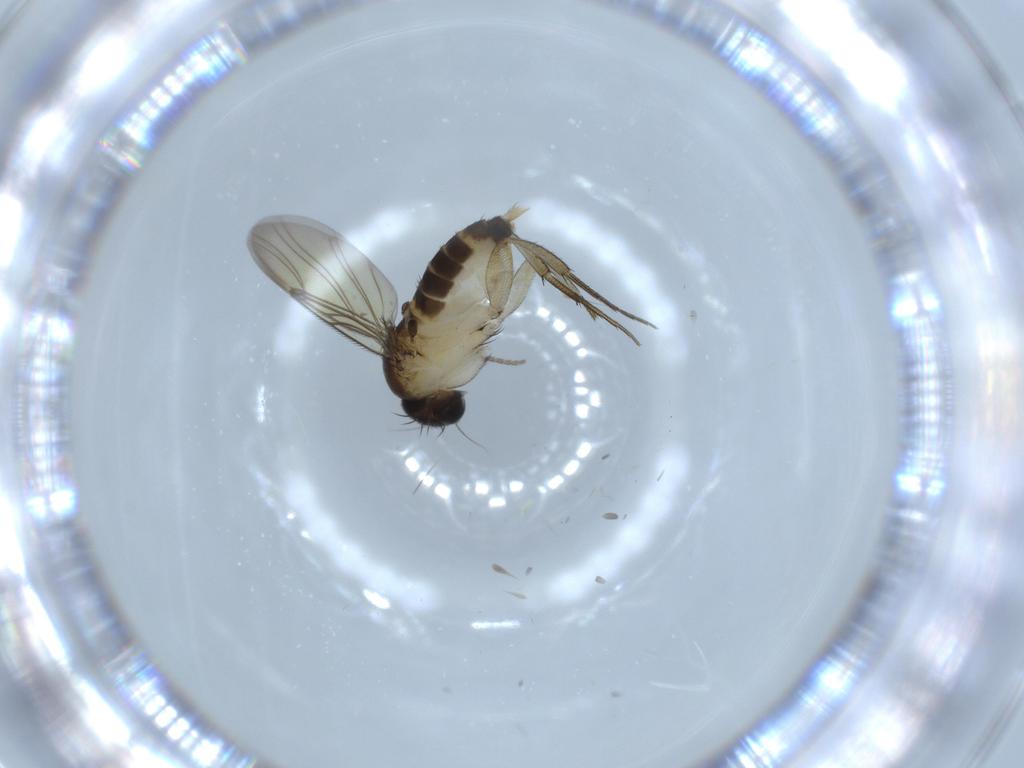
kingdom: Animalia
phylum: Arthropoda
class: Insecta
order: Diptera
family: Phoridae
